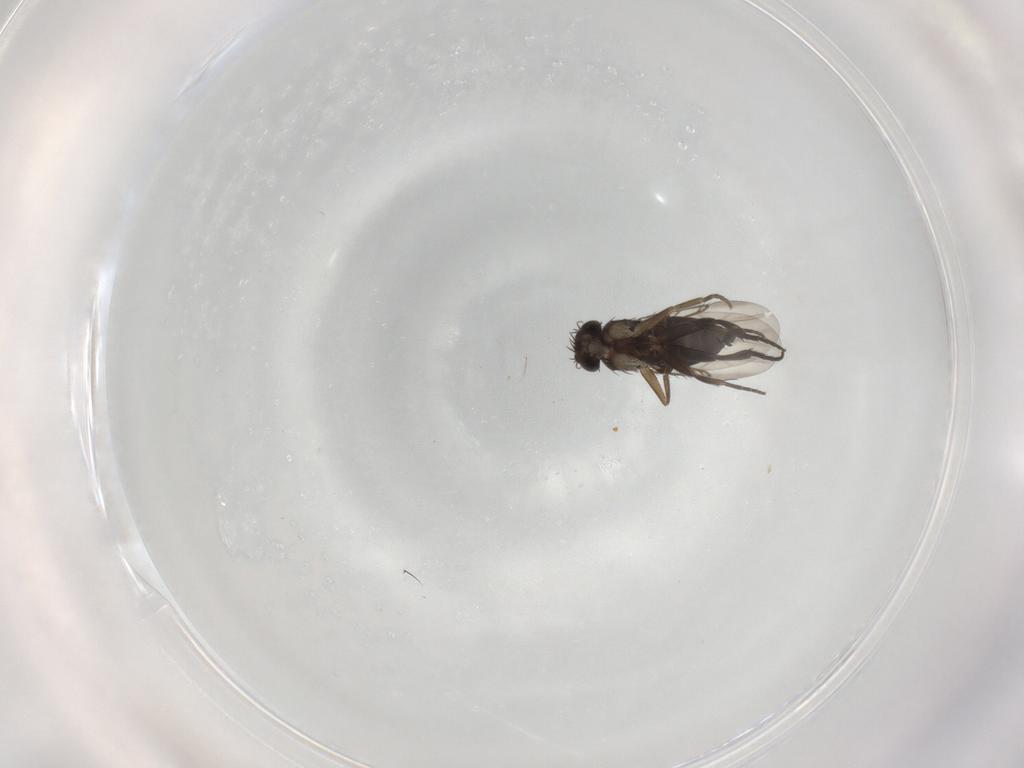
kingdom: Animalia
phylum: Arthropoda
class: Insecta
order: Diptera
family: Phoridae
